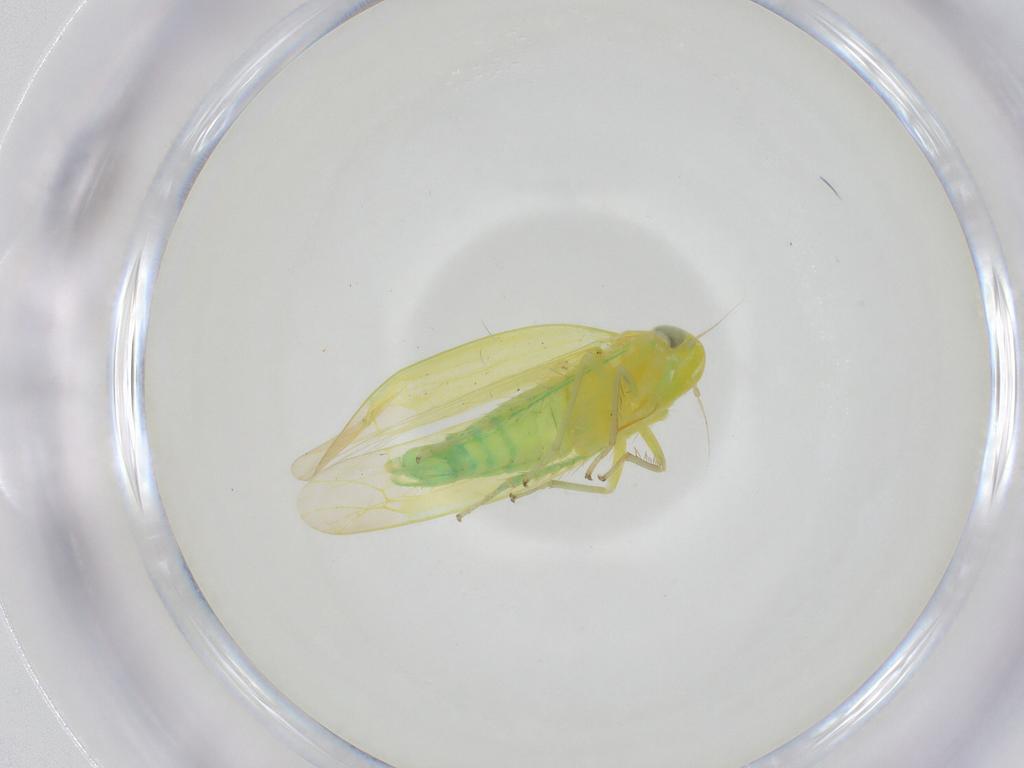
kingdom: Animalia
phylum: Arthropoda
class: Insecta
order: Hemiptera
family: Cicadellidae
